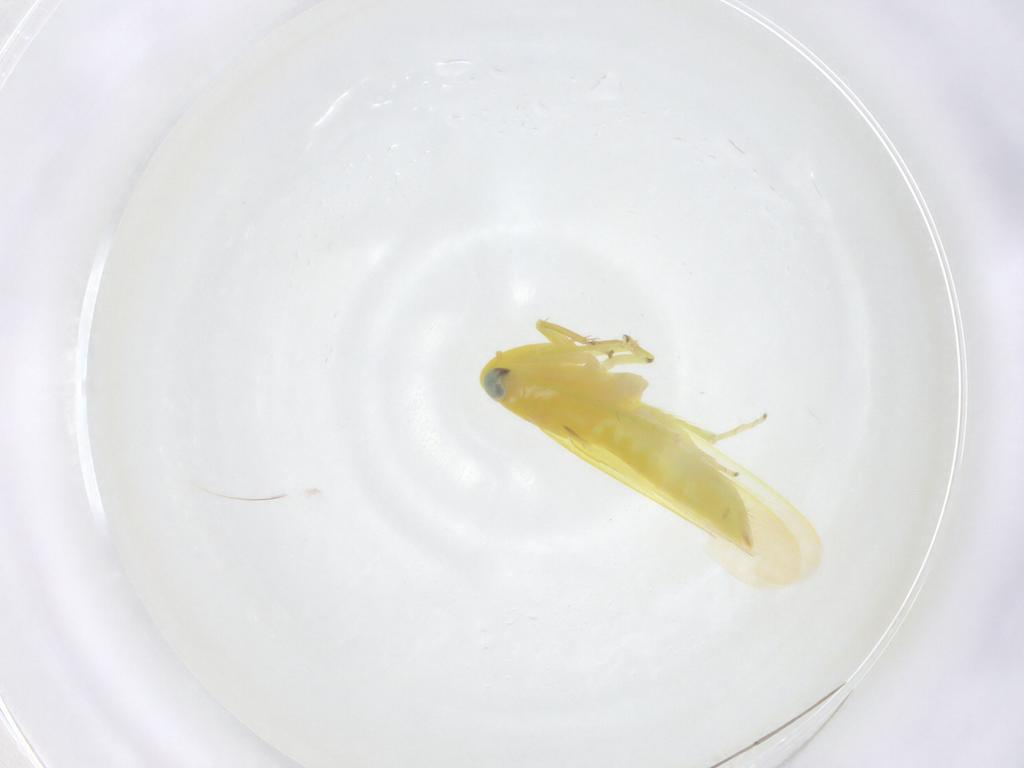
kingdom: Animalia
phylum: Arthropoda
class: Insecta
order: Hemiptera
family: Cicadellidae
